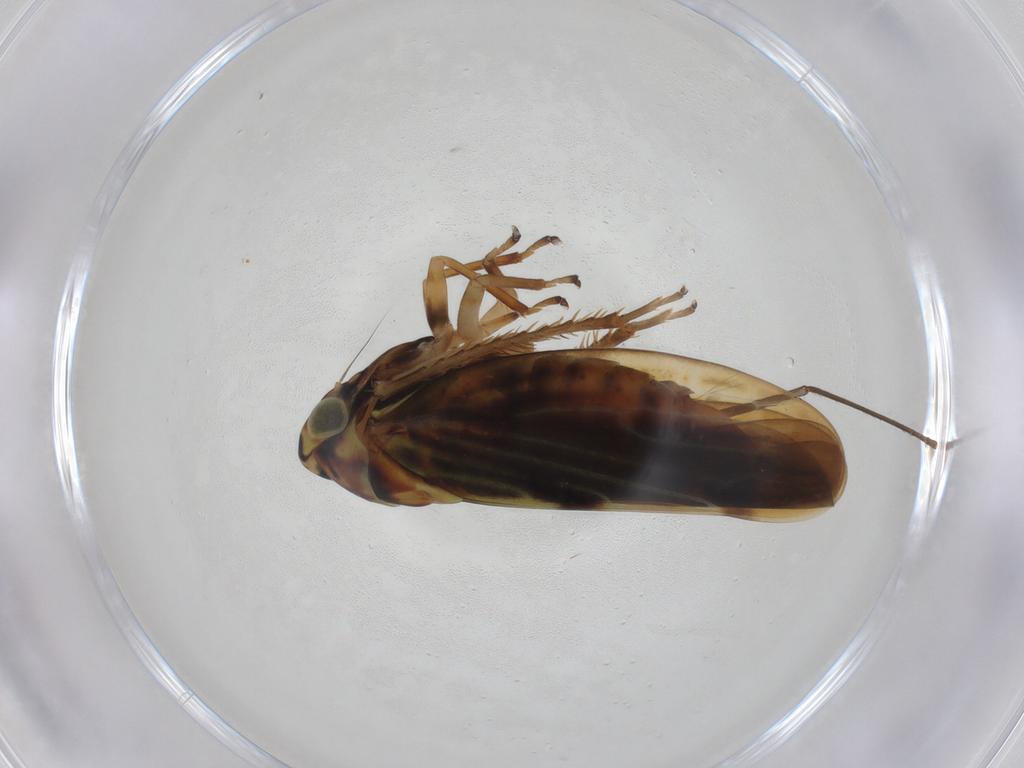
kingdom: Animalia
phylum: Arthropoda
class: Insecta
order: Hemiptera
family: Cicadellidae
